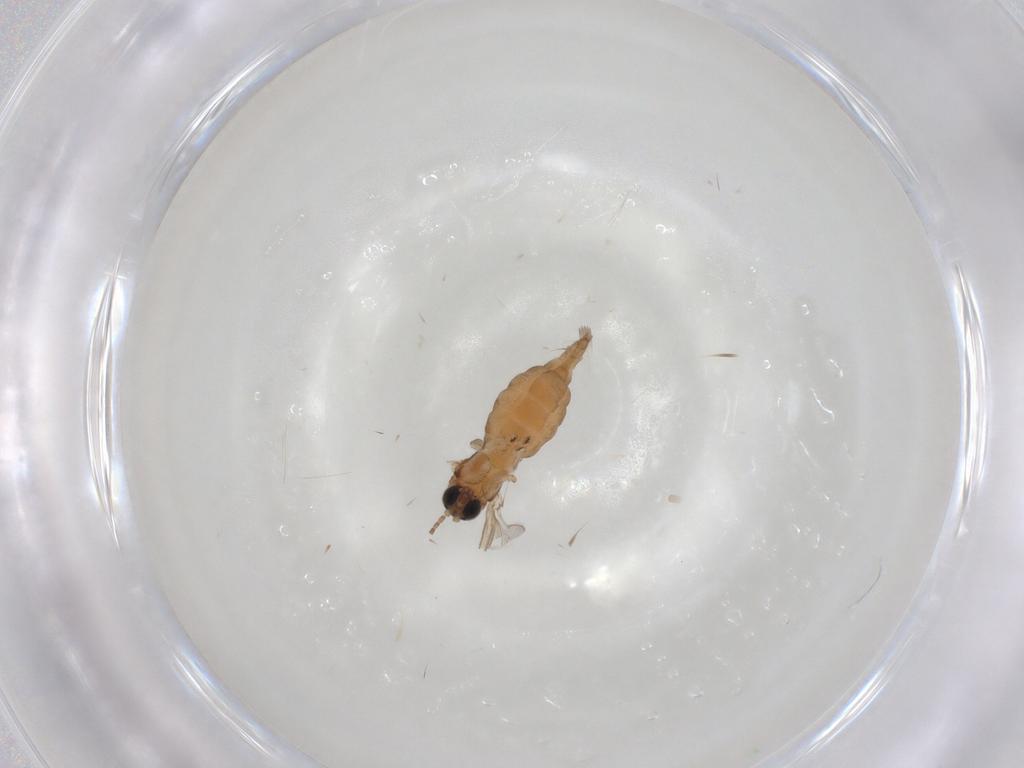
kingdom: Animalia
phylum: Arthropoda
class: Insecta
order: Diptera
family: Sciaridae
